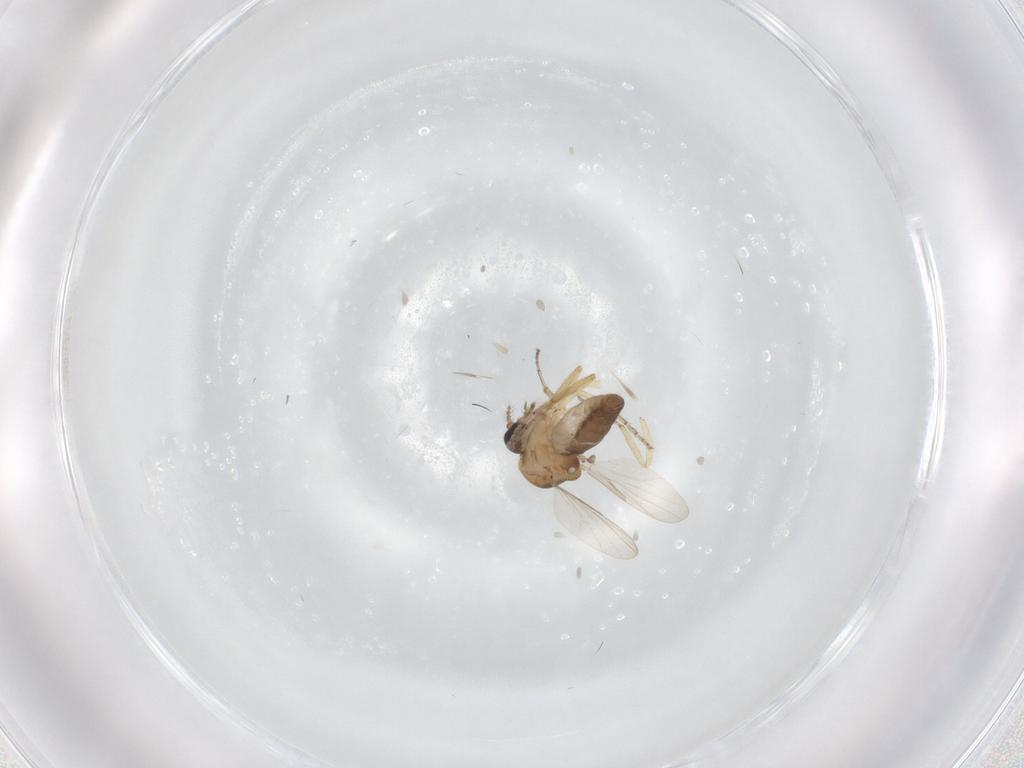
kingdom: Animalia
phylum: Arthropoda
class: Insecta
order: Diptera
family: Ceratopogonidae
